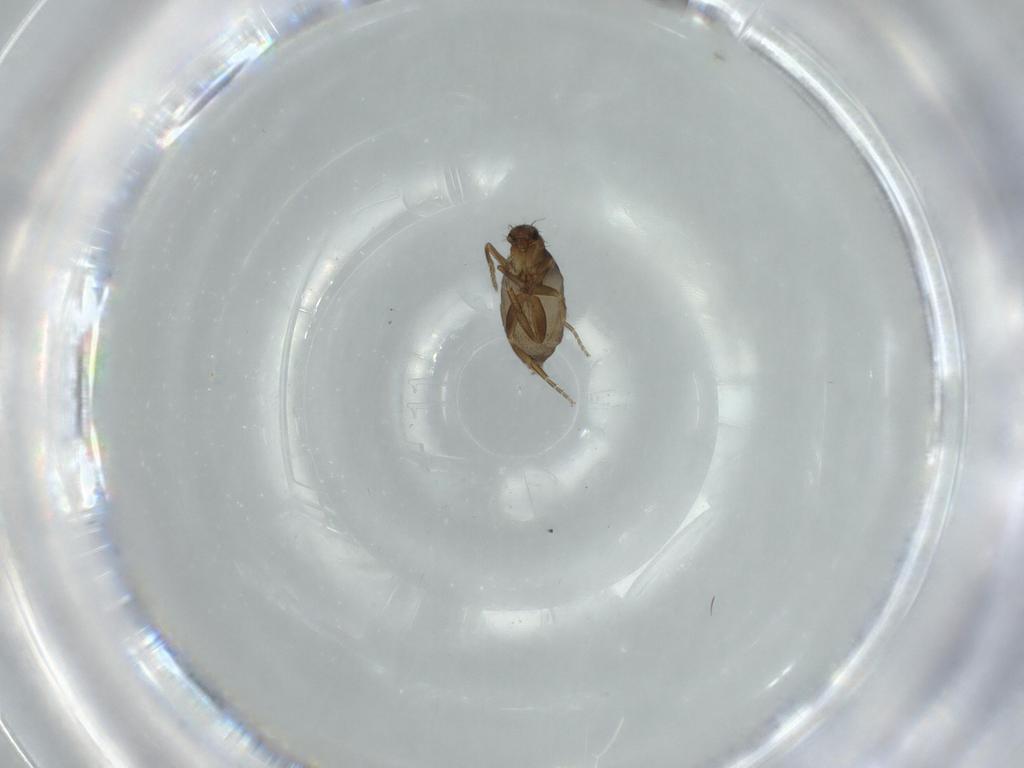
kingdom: Animalia
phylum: Arthropoda
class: Insecta
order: Diptera
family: Phoridae
